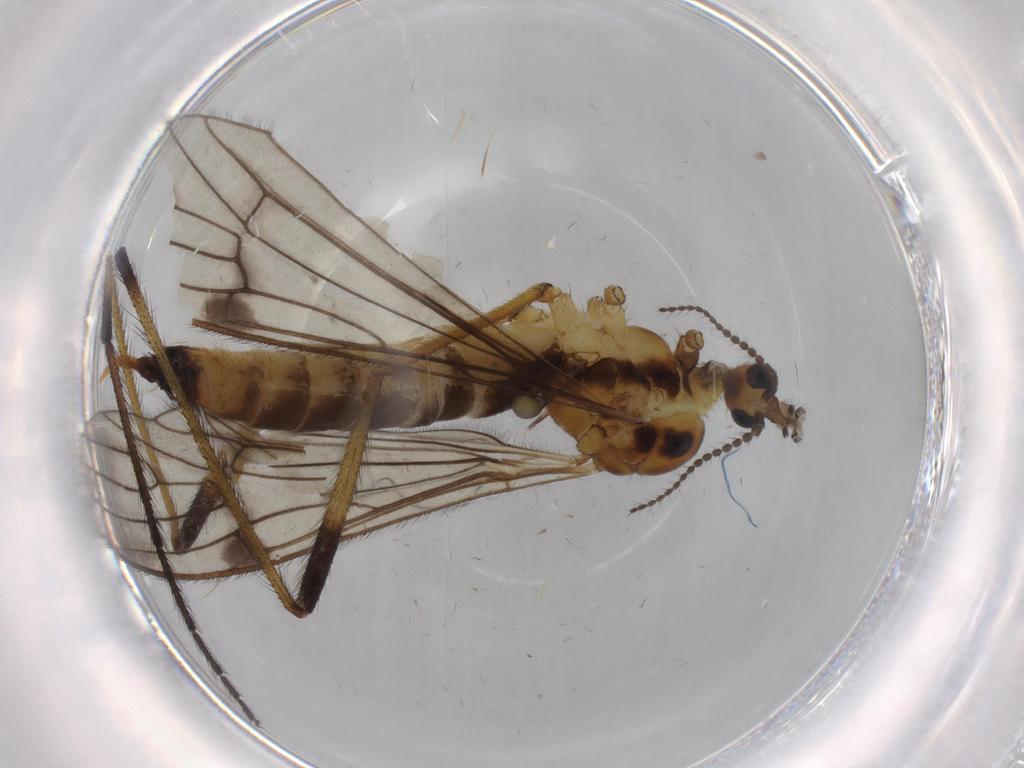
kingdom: Animalia
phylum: Arthropoda
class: Insecta
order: Diptera
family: Limoniidae
